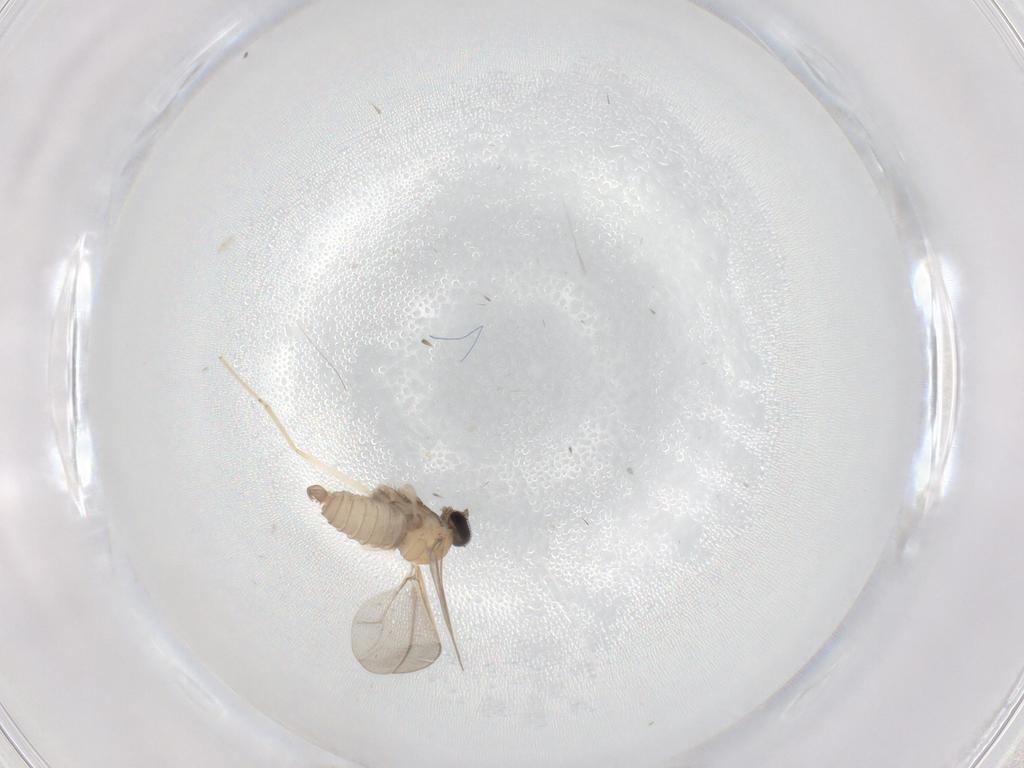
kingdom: Animalia
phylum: Arthropoda
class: Insecta
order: Diptera
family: Cecidomyiidae
